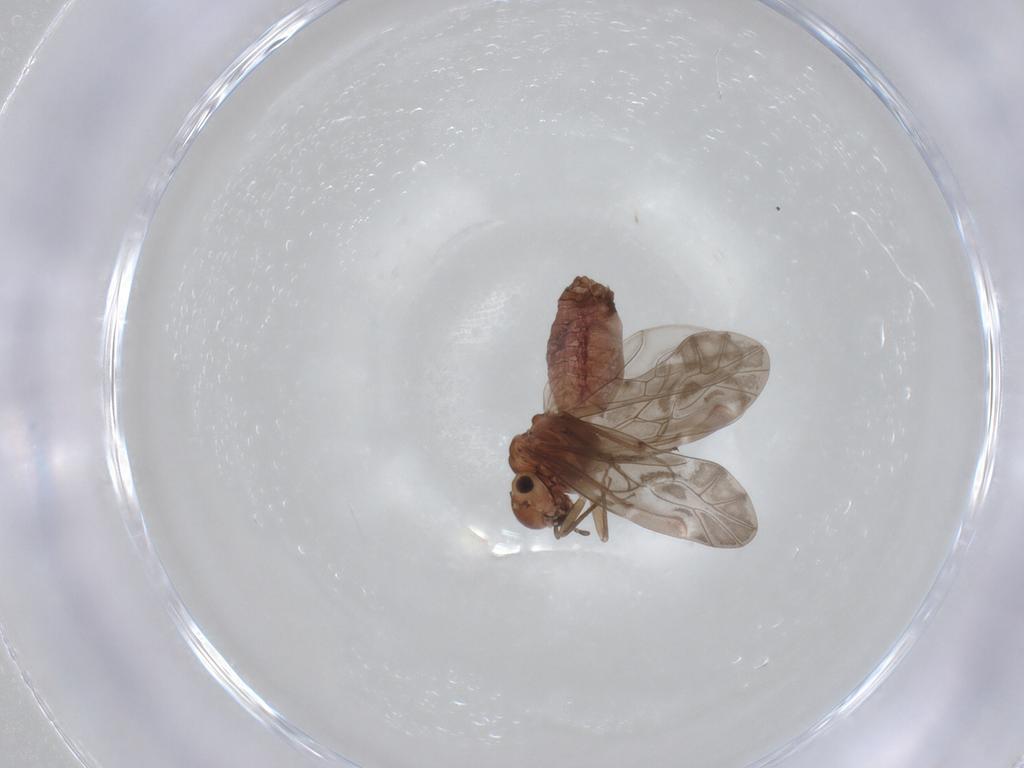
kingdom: Animalia
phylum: Arthropoda
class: Insecta
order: Psocodea
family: Peripsocidae
